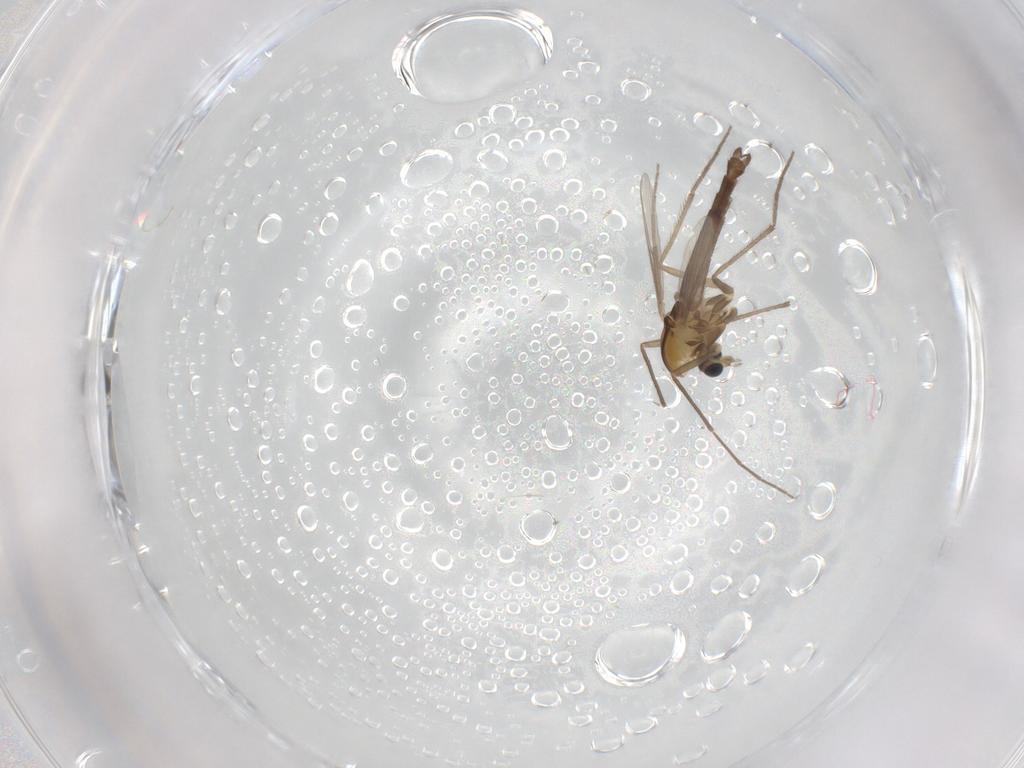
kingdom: Animalia
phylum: Arthropoda
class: Insecta
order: Diptera
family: Chironomidae
